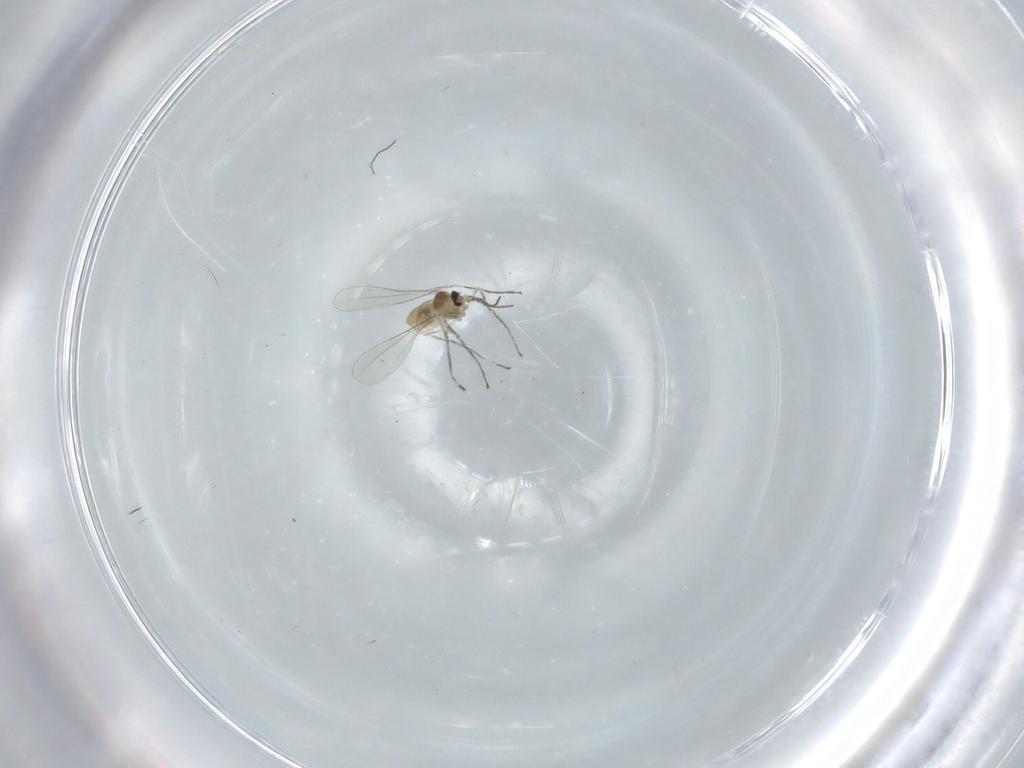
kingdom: Animalia
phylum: Arthropoda
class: Insecta
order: Diptera
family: Cecidomyiidae
